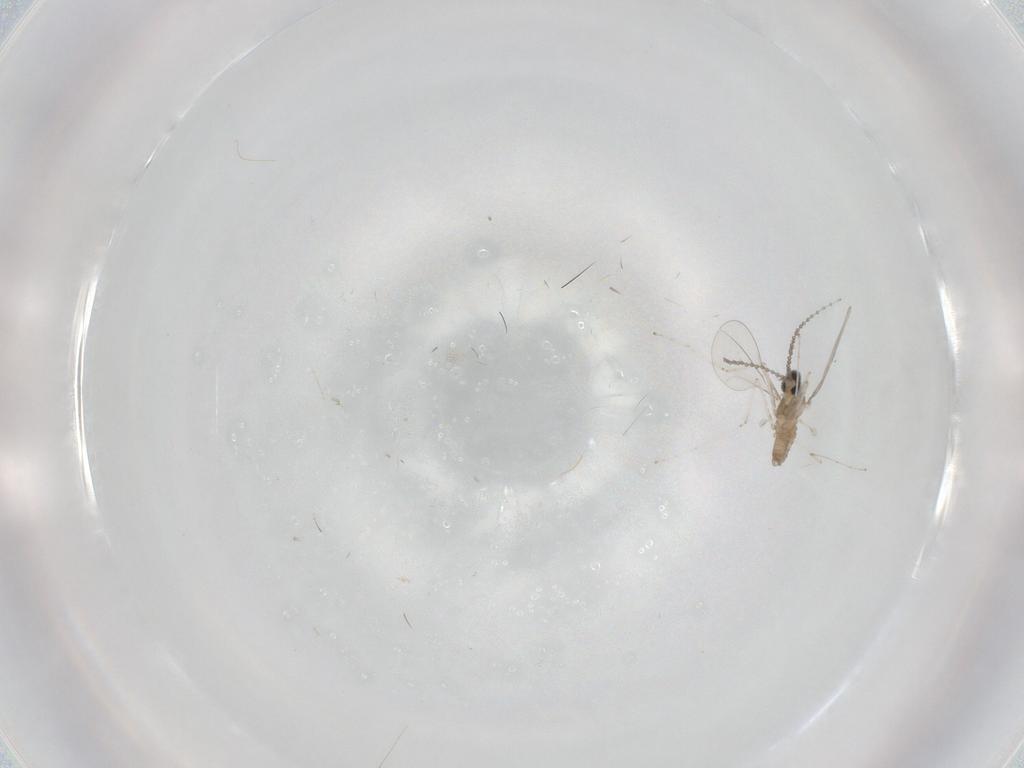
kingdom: Animalia
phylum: Arthropoda
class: Insecta
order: Diptera
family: Cecidomyiidae
